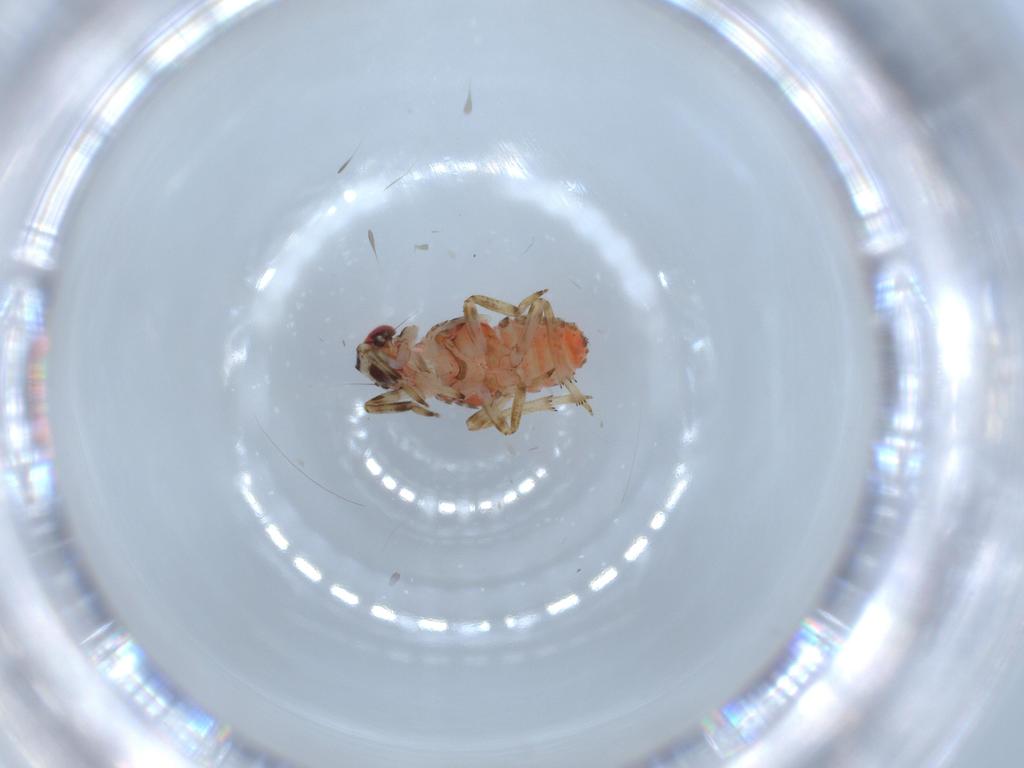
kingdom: Animalia
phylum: Arthropoda
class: Insecta
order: Hemiptera
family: Issidae
